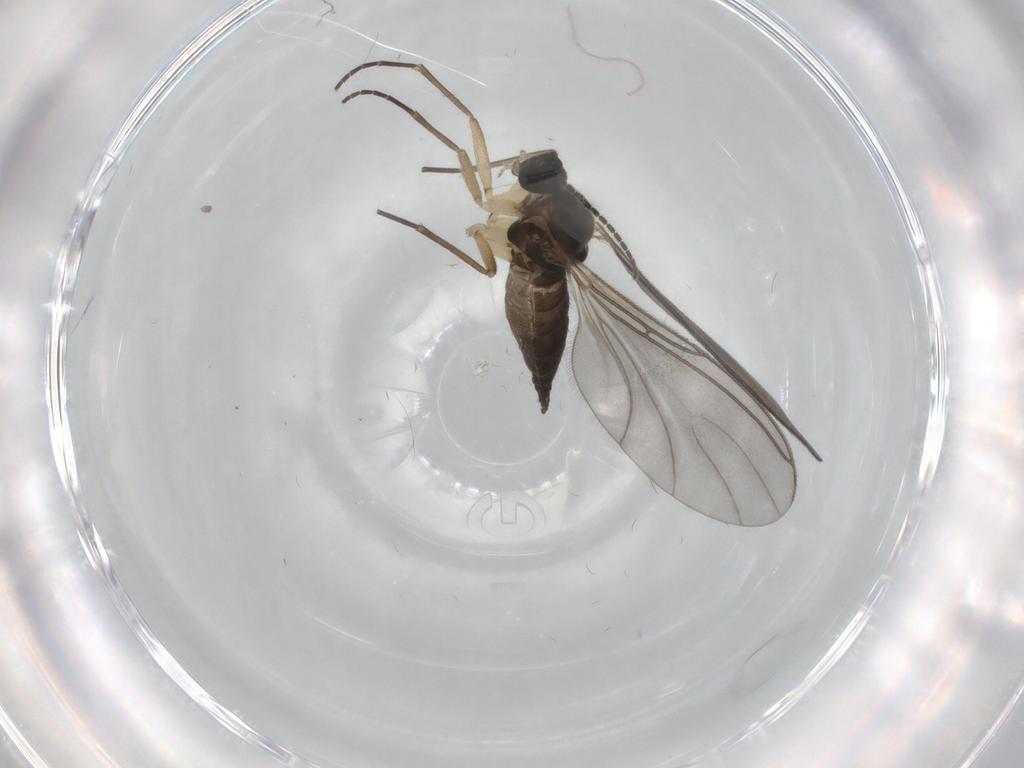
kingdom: Animalia
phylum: Arthropoda
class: Insecta
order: Diptera
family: Sciaridae
